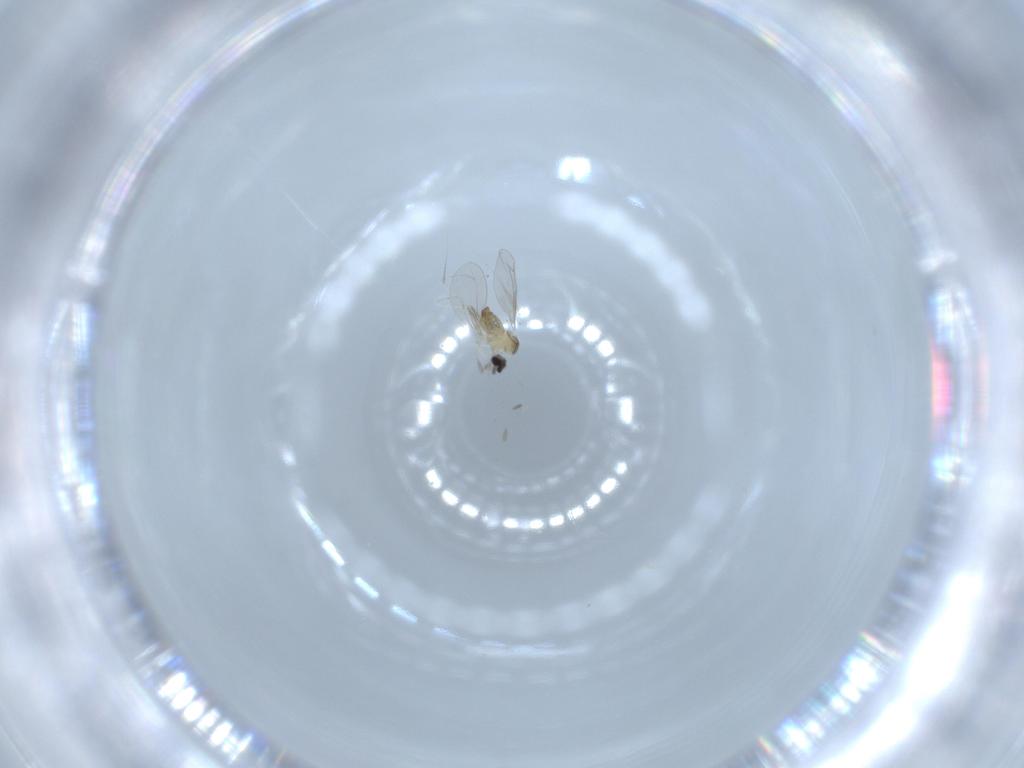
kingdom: Animalia
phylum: Arthropoda
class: Insecta
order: Diptera
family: Cecidomyiidae
